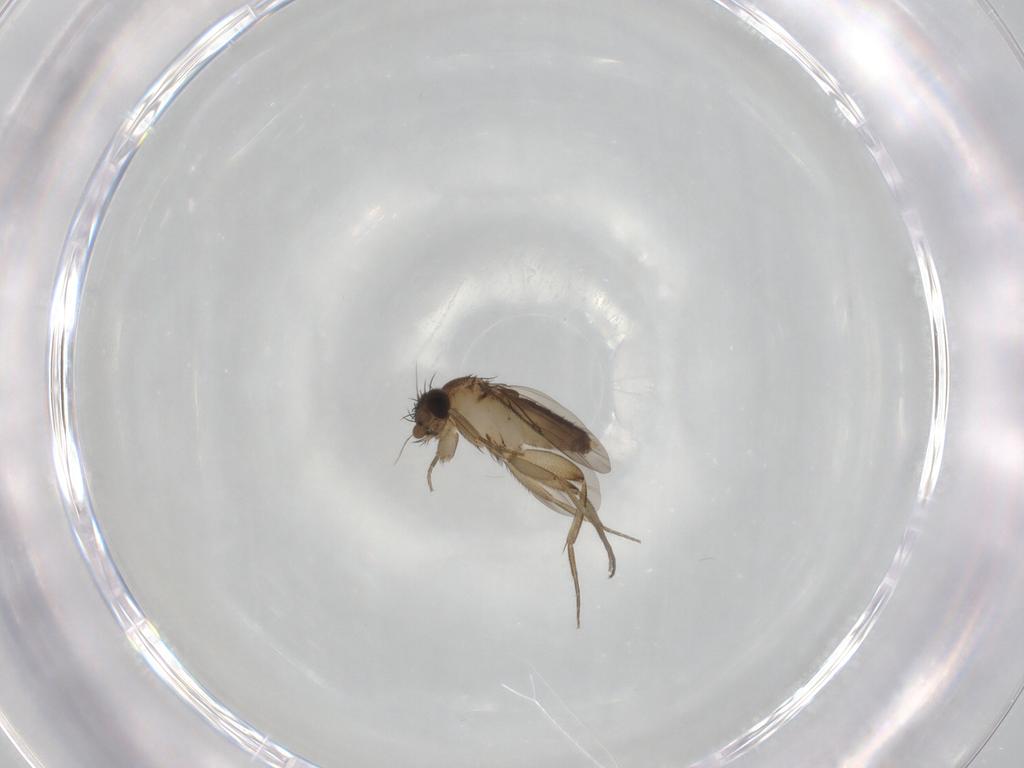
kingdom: Animalia
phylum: Arthropoda
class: Insecta
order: Diptera
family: Phoridae
